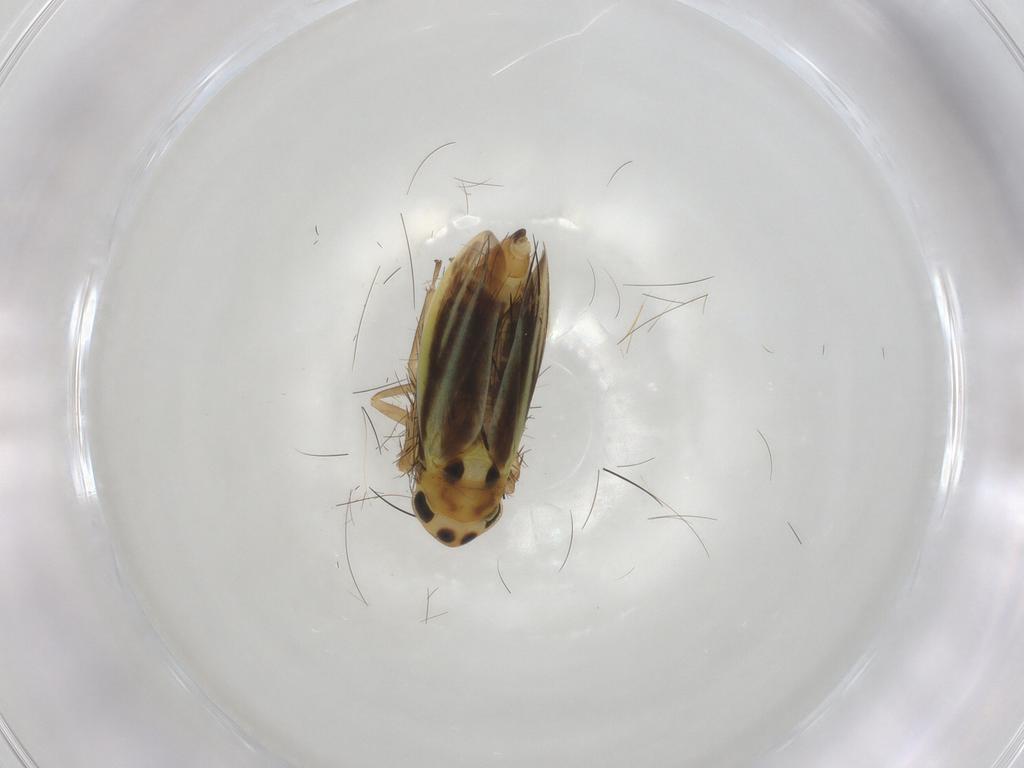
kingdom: Animalia
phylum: Arthropoda
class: Insecta
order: Hemiptera
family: Cicadellidae
